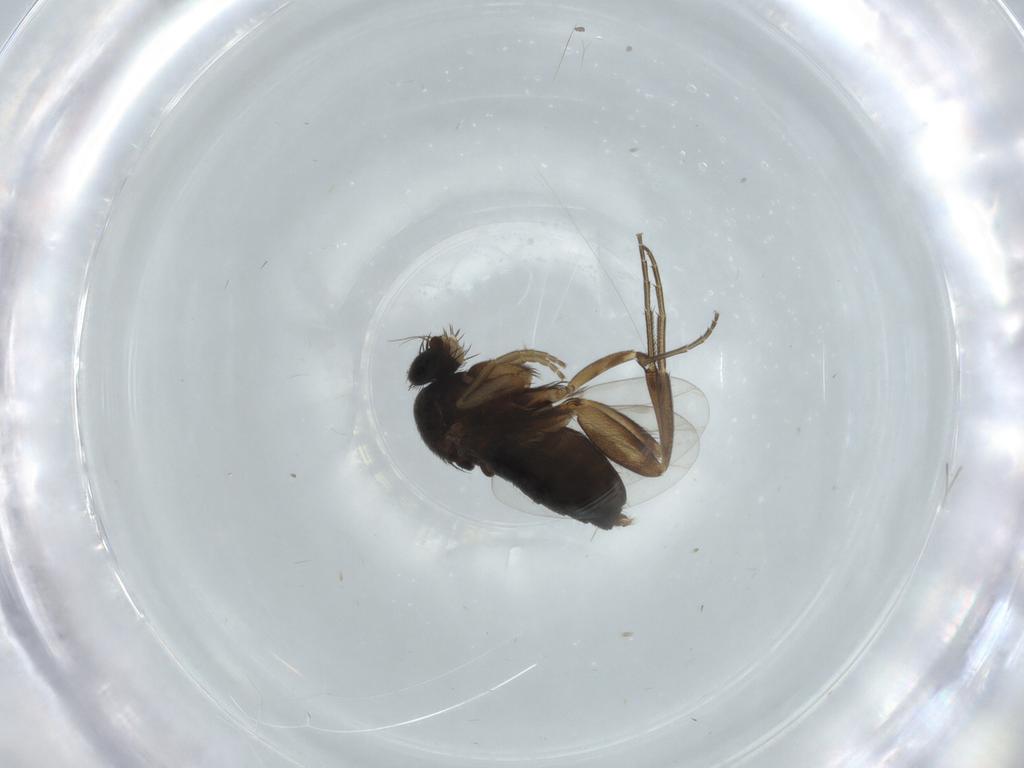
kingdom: Animalia
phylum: Arthropoda
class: Insecta
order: Diptera
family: Phoridae
